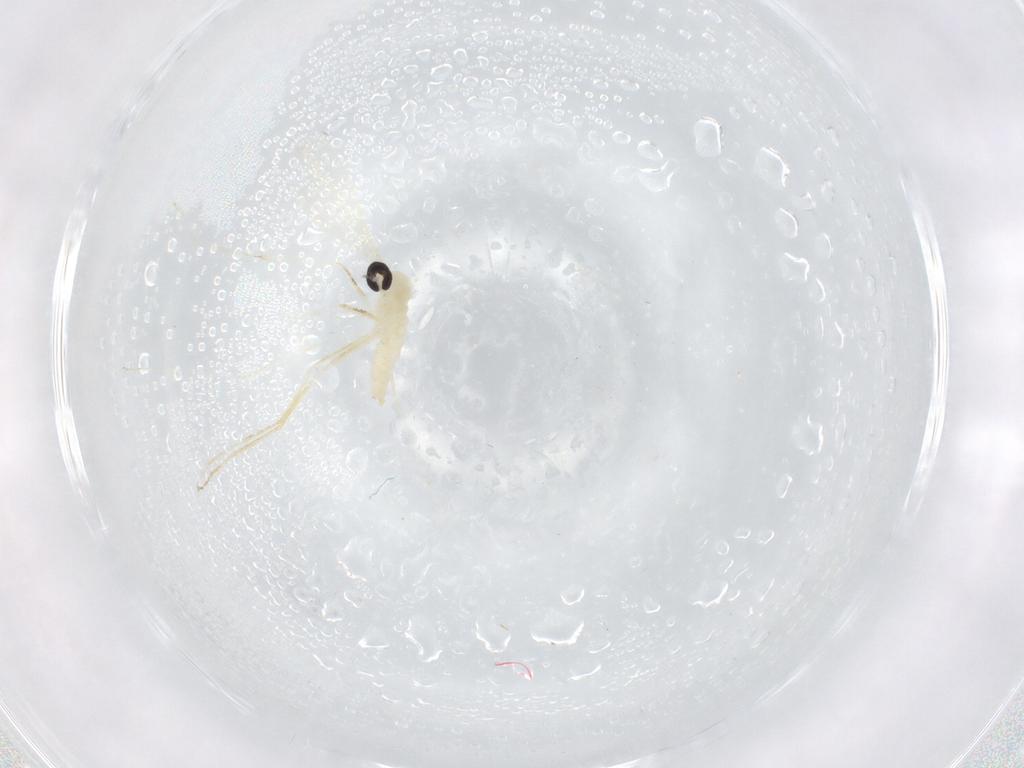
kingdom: Animalia
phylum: Arthropoda
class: Insecta
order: Diptera
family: Cecidomyiidae
